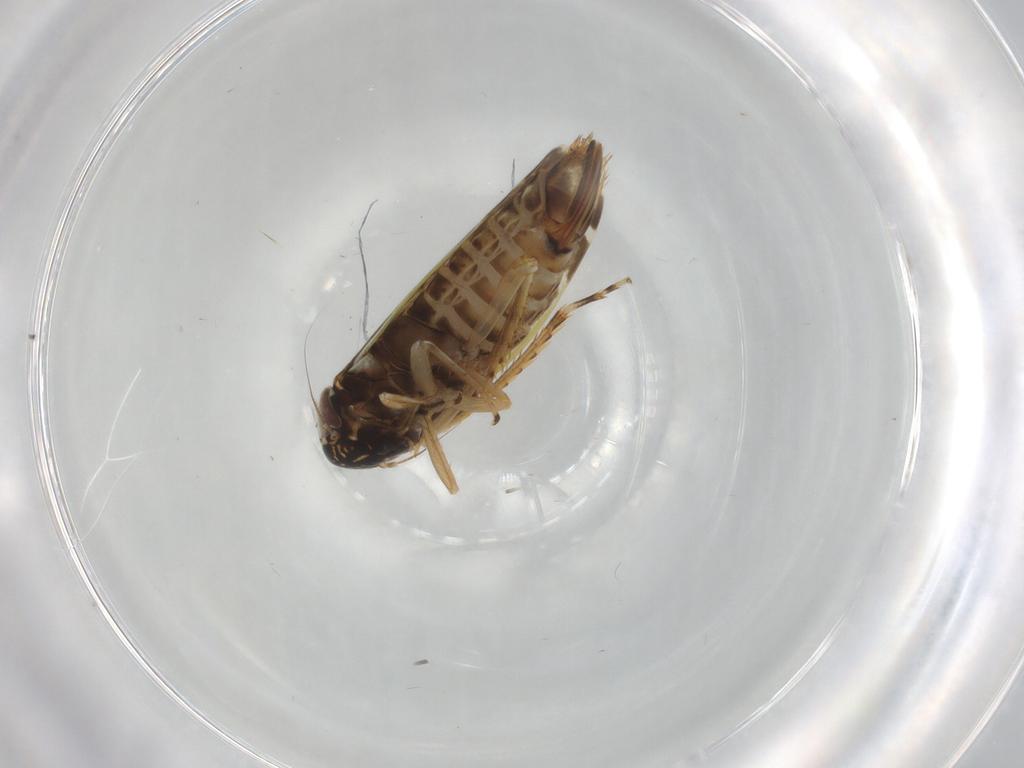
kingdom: Animalia
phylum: Arthropoda
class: Insecta
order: Hemiptera
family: Cicadellidae
